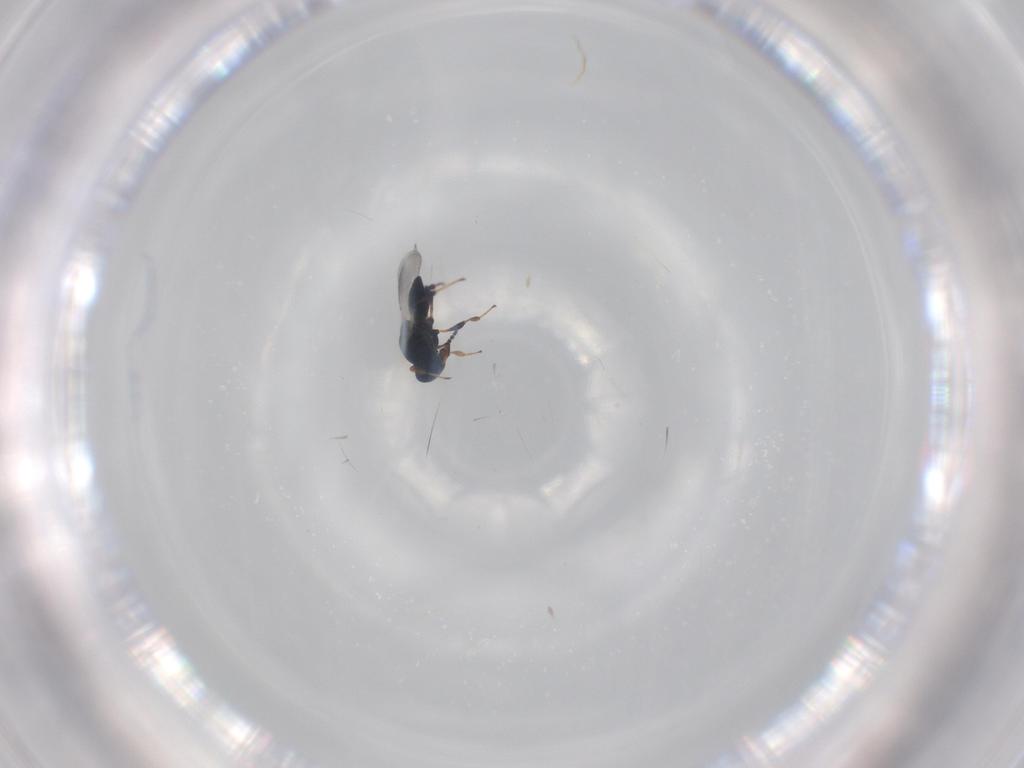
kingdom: Animalia
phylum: Arthropoda
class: Insecta
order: Hymenoptera
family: Platygastridae
